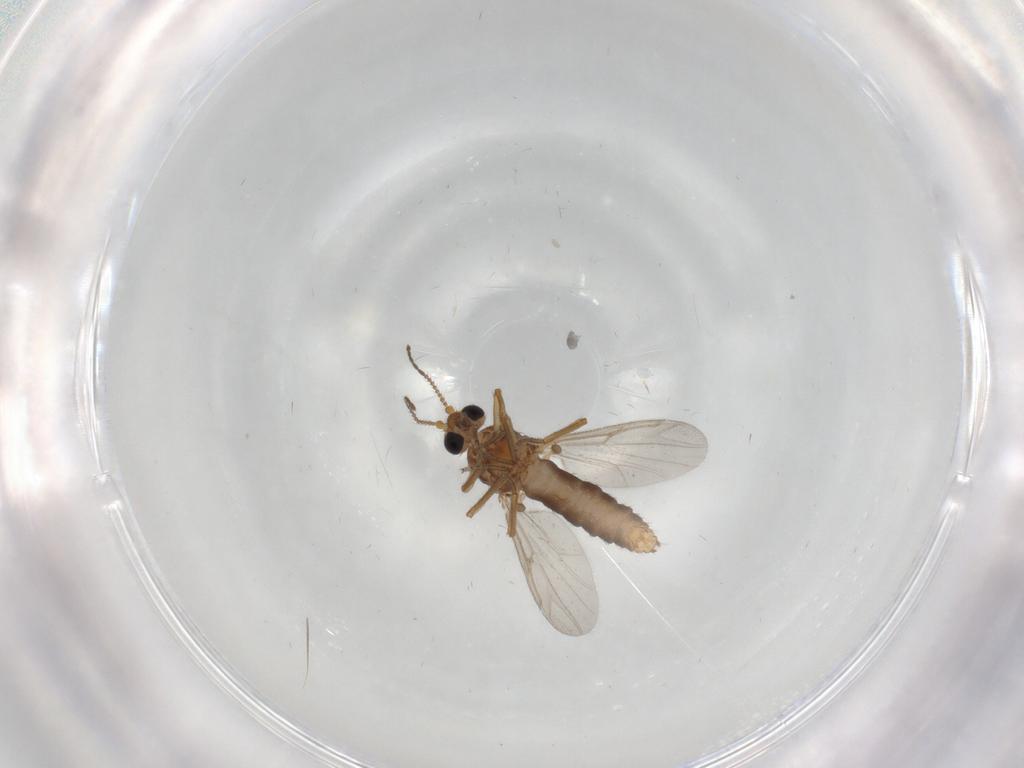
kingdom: Animalia
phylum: Arthropoda
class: Insecta
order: Diptera
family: Ceratopogonidae
